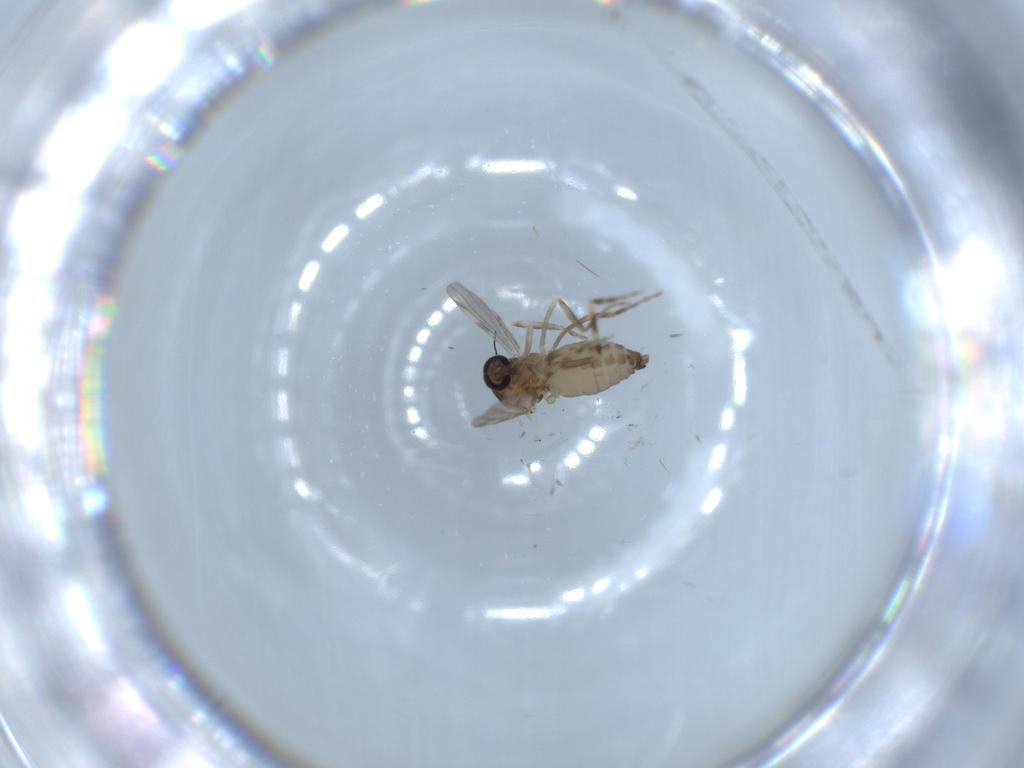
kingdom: Animalia
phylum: Arthropoda
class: Insecta
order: Diptera
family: Ceratopogonidae
